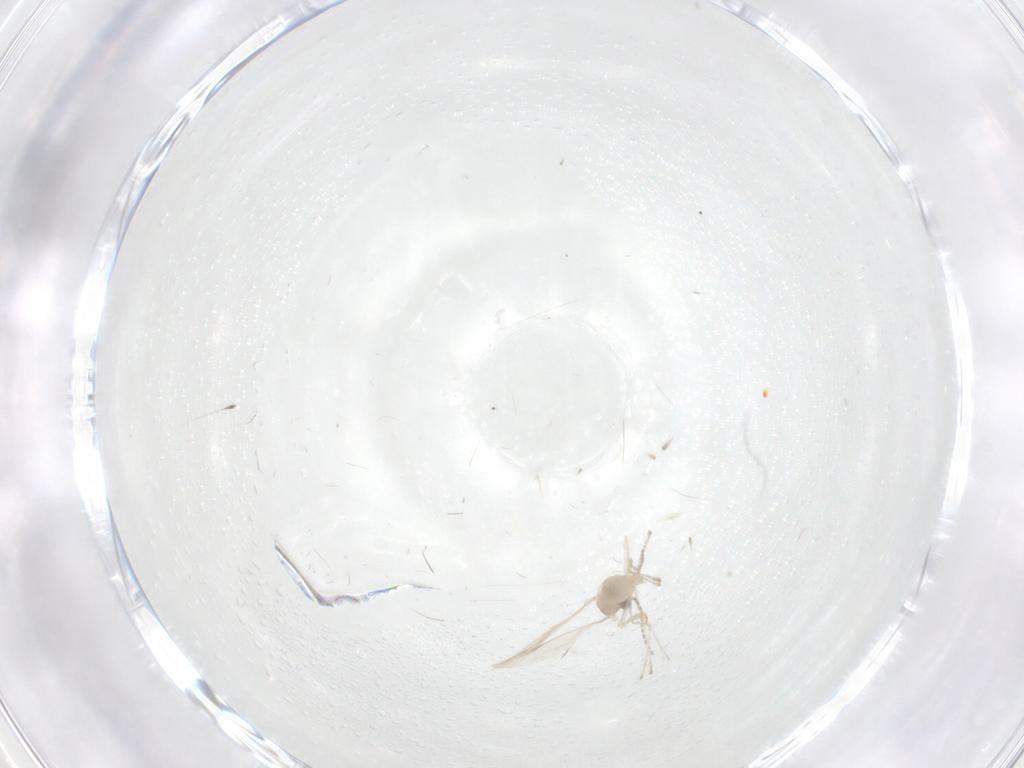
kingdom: Animalia
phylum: Arthropoda
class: Insecta
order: Diptera
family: Cecidomyiidae
